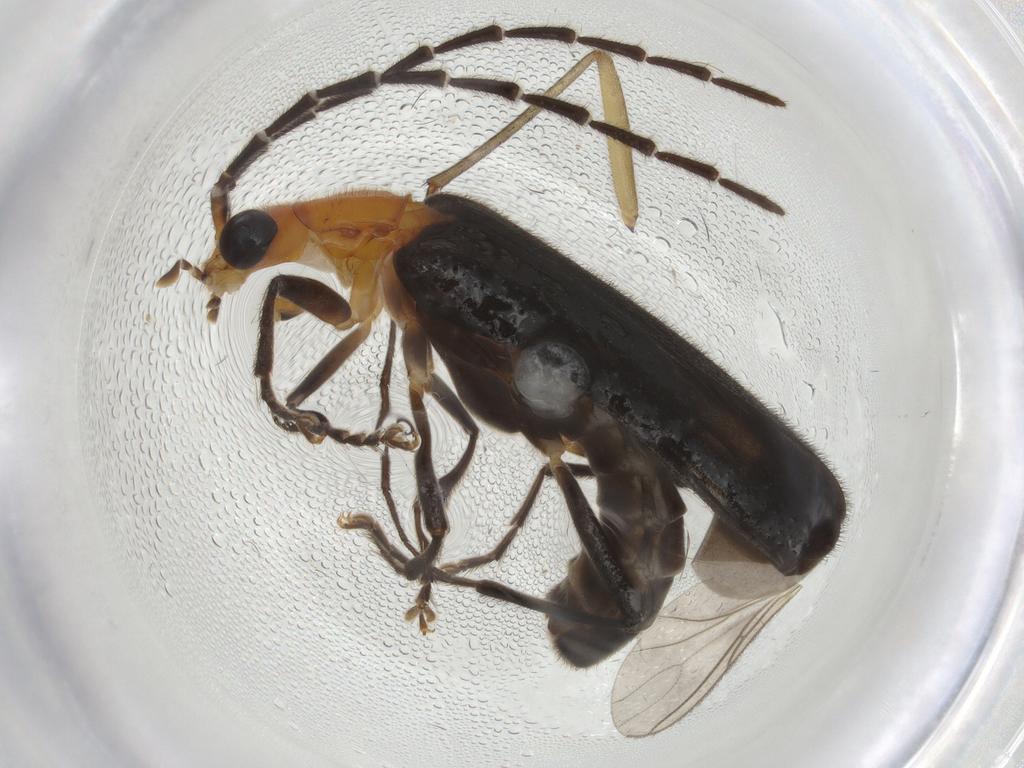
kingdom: Animalia
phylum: Arthropoda
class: Insecta
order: Coleoptera
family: Cantharidae
